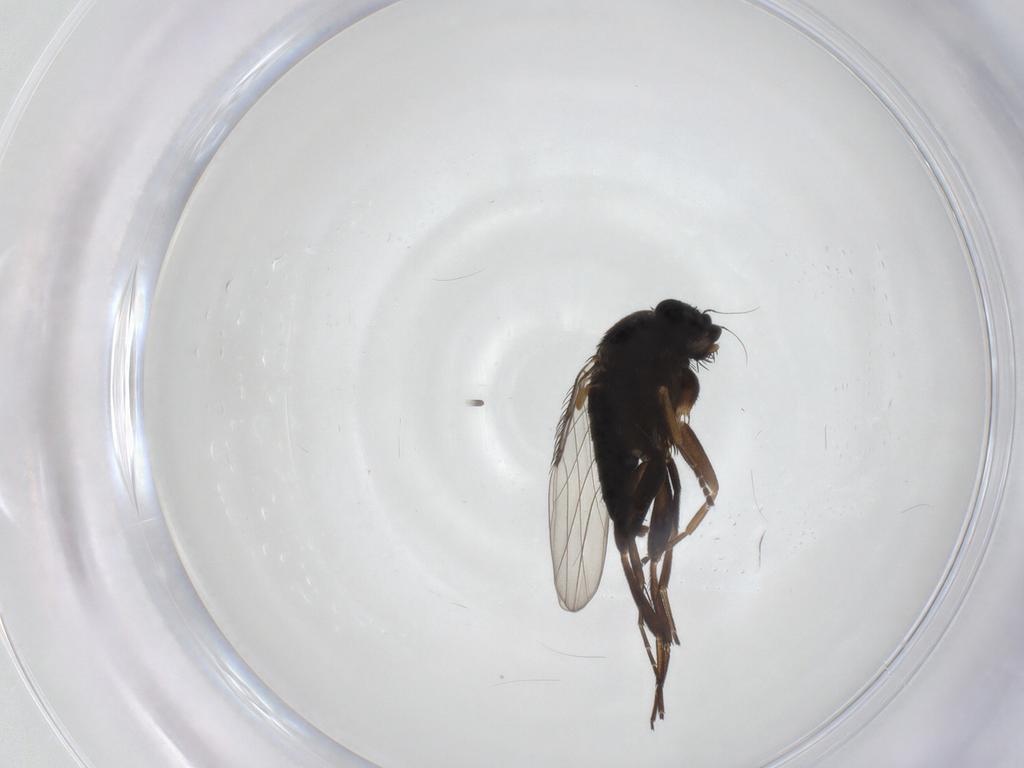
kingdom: Animalia
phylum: Arthropoda
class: Insecta
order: Diptera
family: Phoridae
